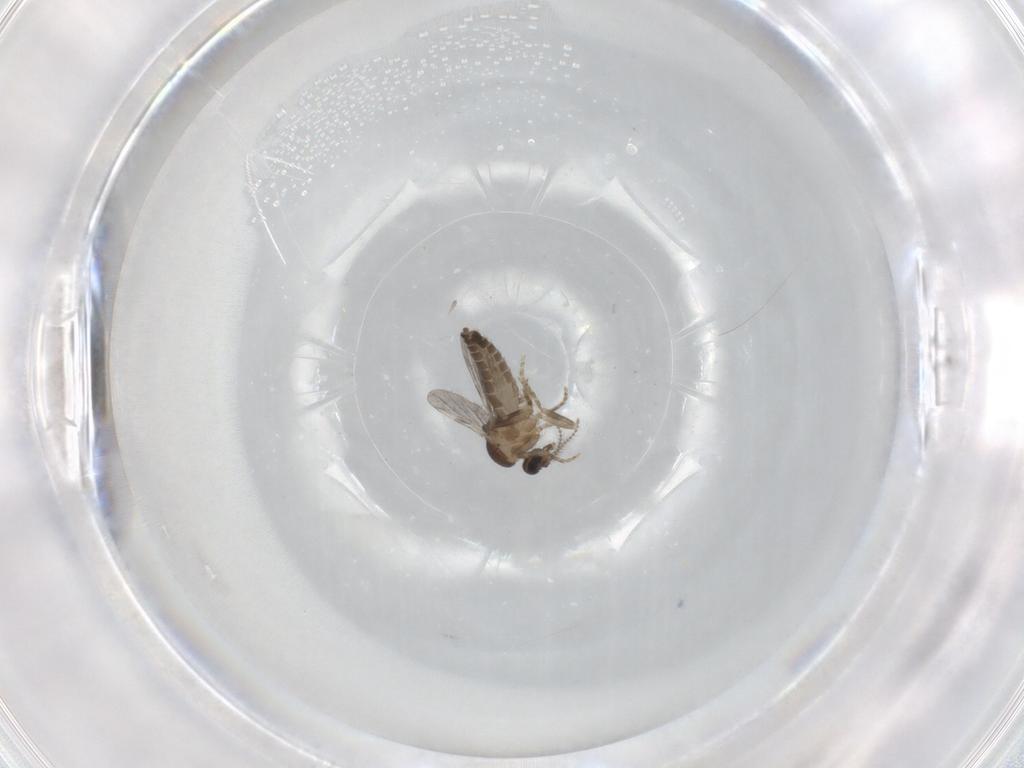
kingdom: Animalia
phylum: Arthropoda
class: Insecta
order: Diptera
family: Ceratopogonidae
